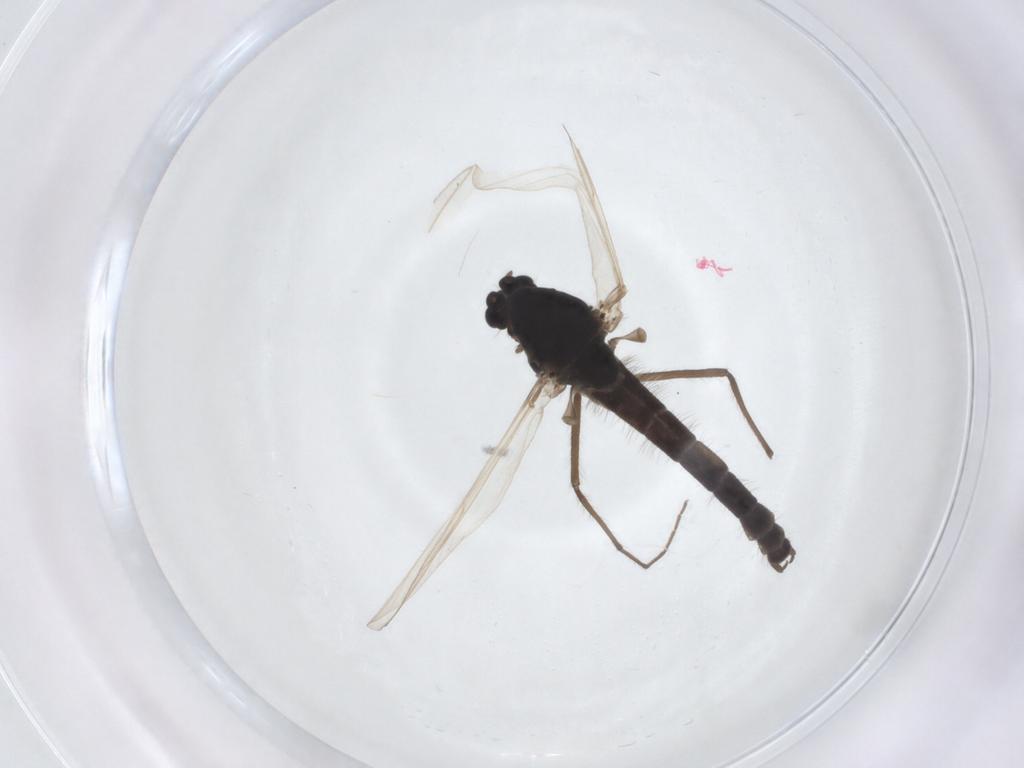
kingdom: Animalia
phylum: Arthropoda
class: Insecta
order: Diptera
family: Chironomidae
